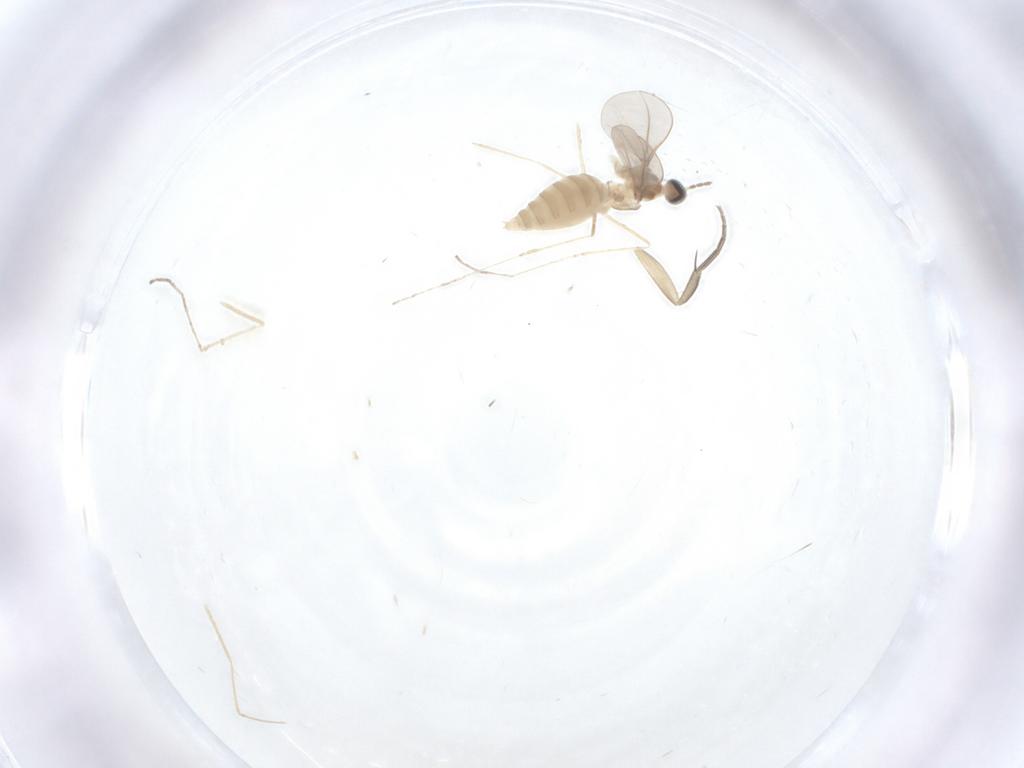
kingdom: Animalia
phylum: Arthropoda
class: Insecta
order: Diptera
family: Phoridae
